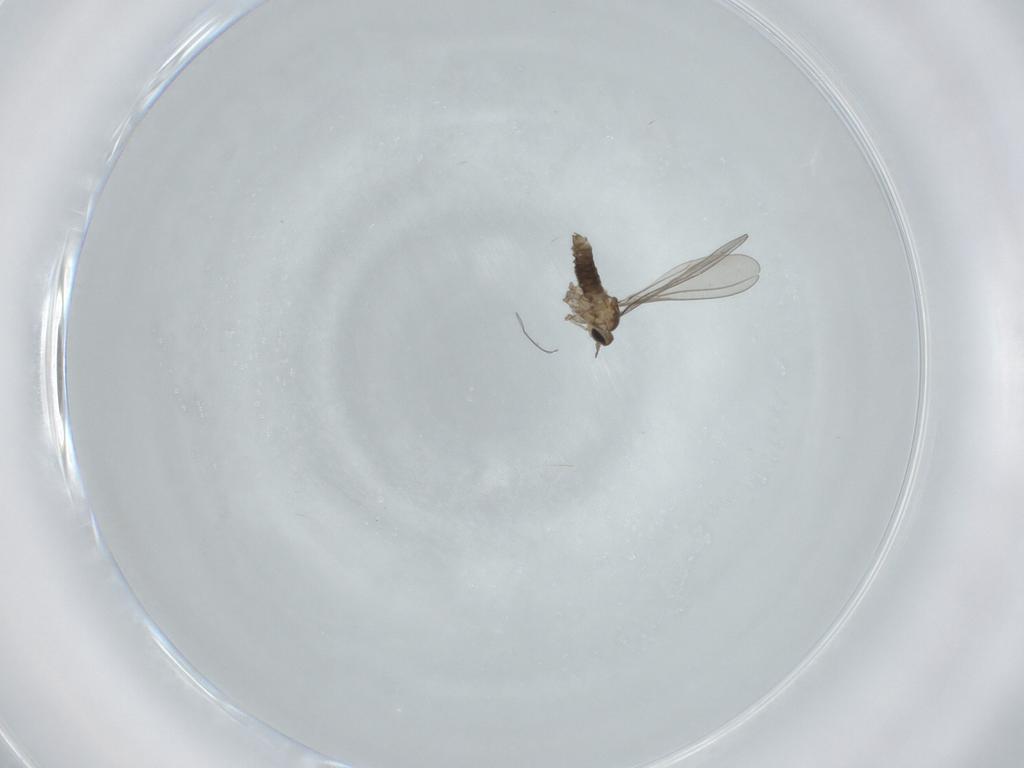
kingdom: Animalia
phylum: Arthropoda
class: Insecta
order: Diptera
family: Cecidomyiidae
